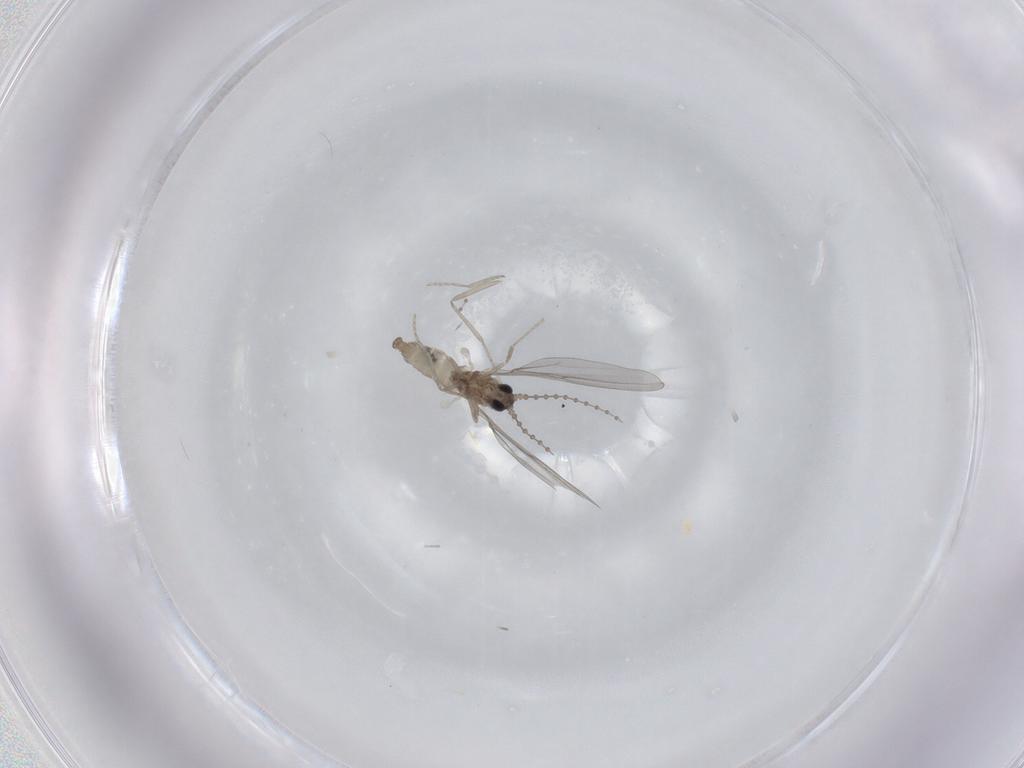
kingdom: Animalia
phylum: Arthropoda
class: Insecta
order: Diptera
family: Cecidomyiidae
